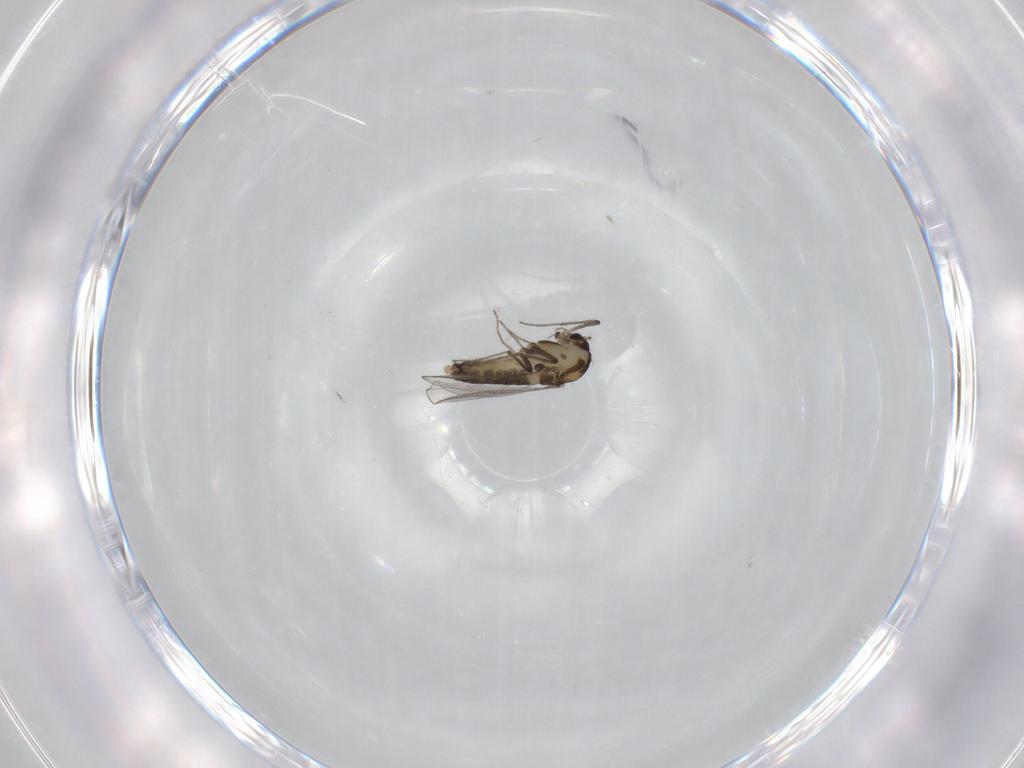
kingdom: Animalia
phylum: Arthropoda
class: Insecta
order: Diptera
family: Chironomidae
